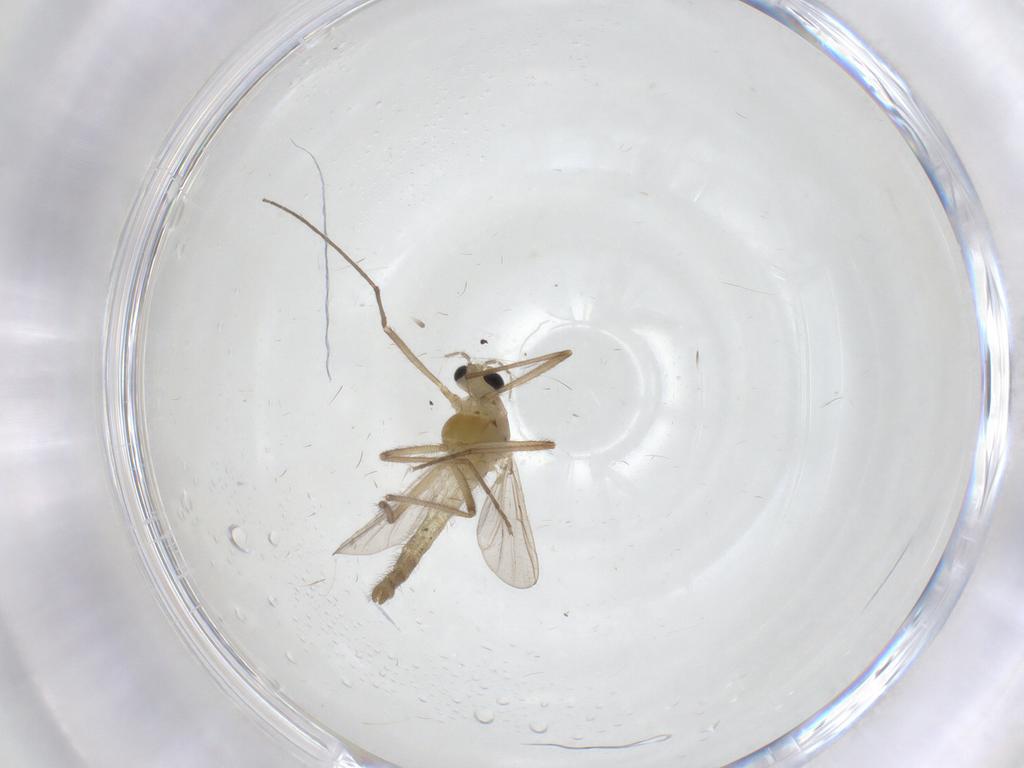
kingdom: Animalia
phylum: Arthropoda
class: Insecta
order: Diptera
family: Chironomidae
